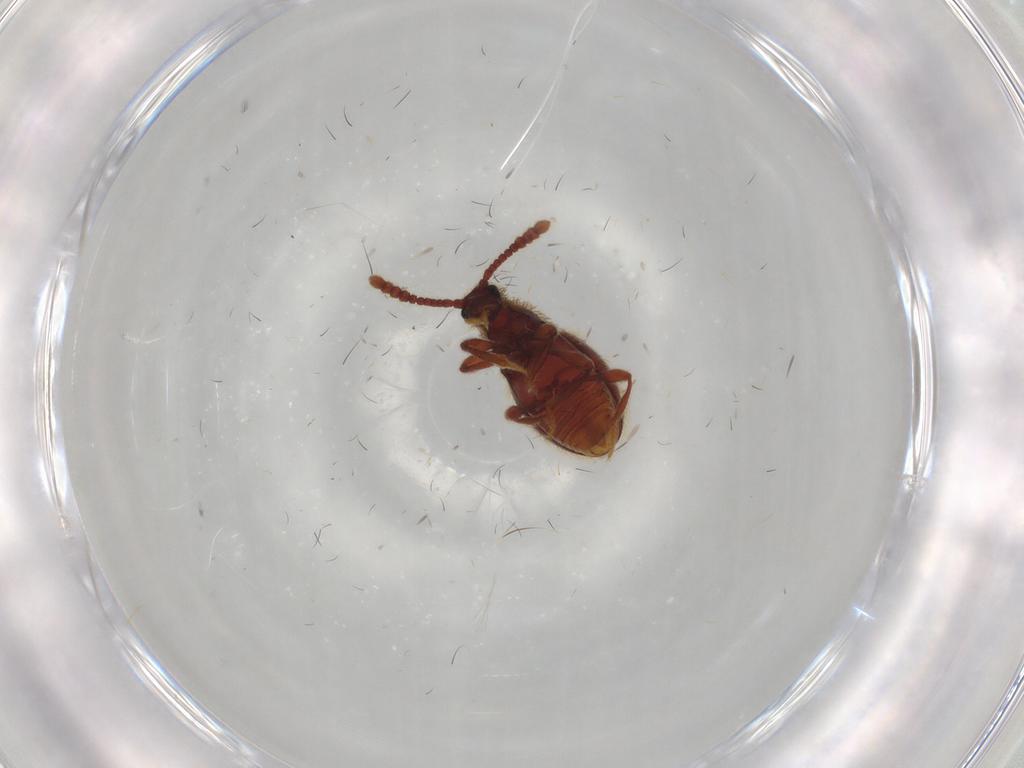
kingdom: Animalia
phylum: Arthropoda
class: Insecta
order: Coleoptera
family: Staphylinidae
